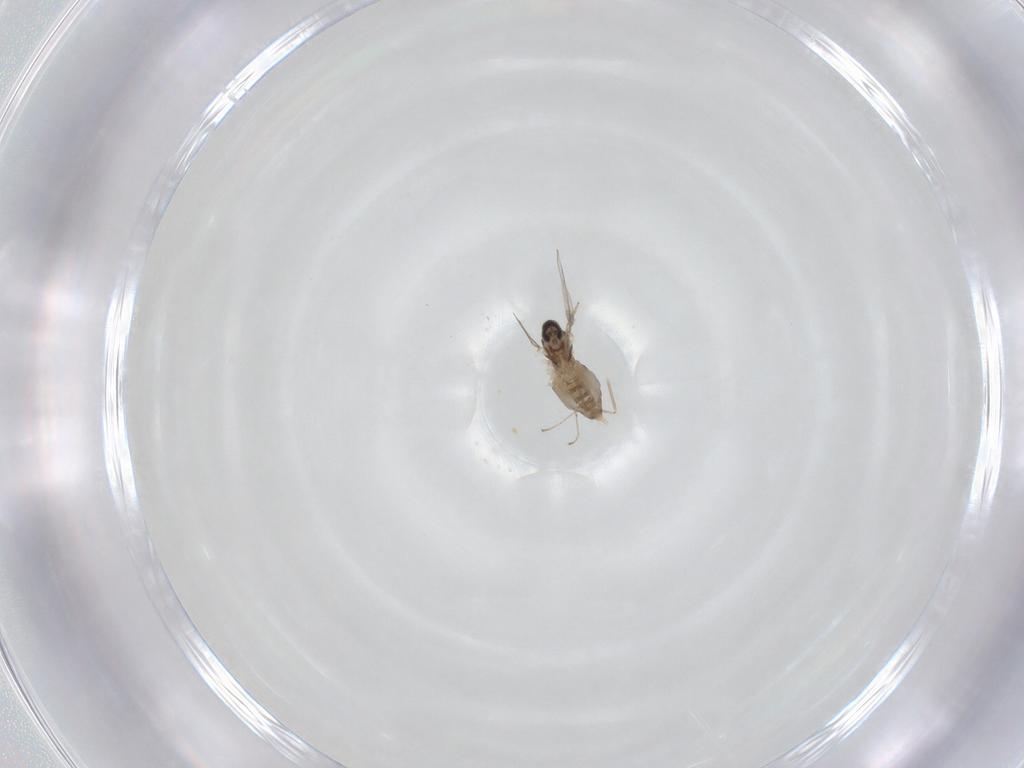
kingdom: Animalia
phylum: Arthropoda
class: Insecta
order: Diptera
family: Cecidomyiidae
